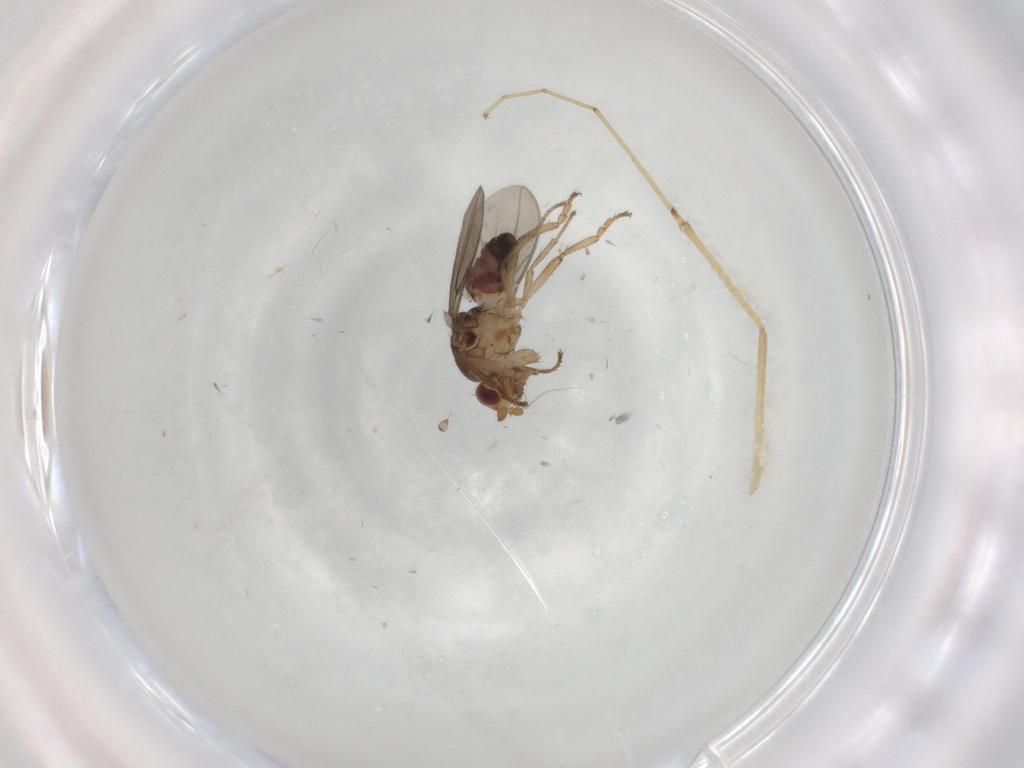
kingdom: Animalia
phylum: Arthropoda
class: Insecta
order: Diptera
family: Sphaeroceridae
